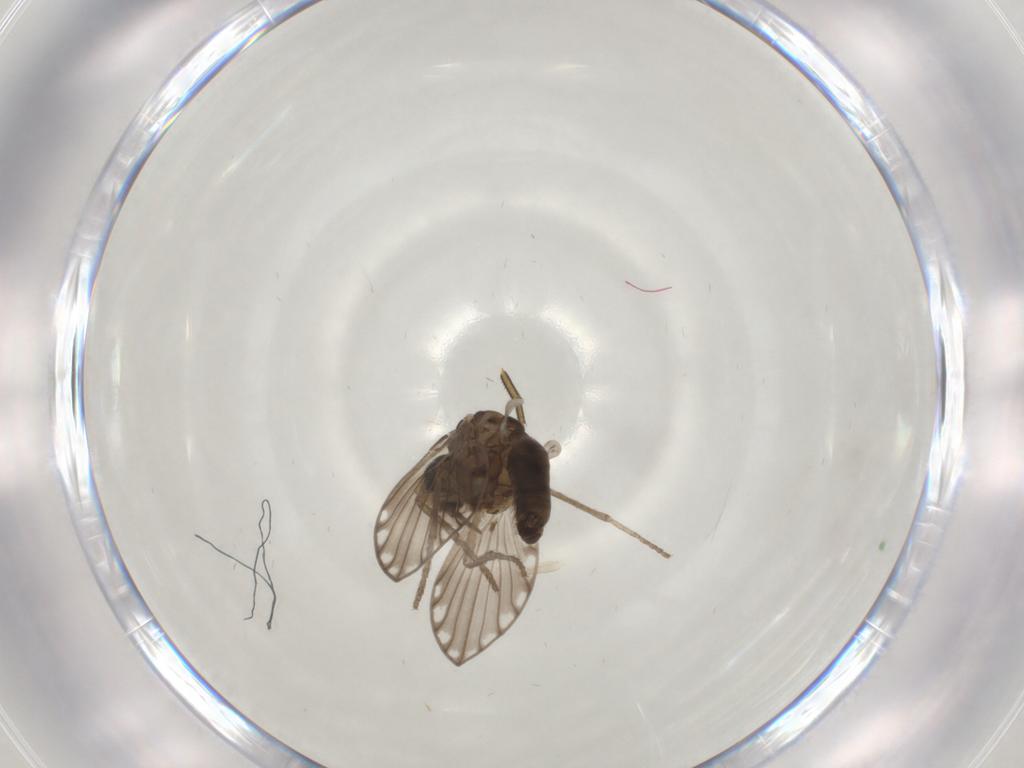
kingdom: Animalia
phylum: Arthropoda
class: Insecta
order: Diptera
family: Psychodidae
